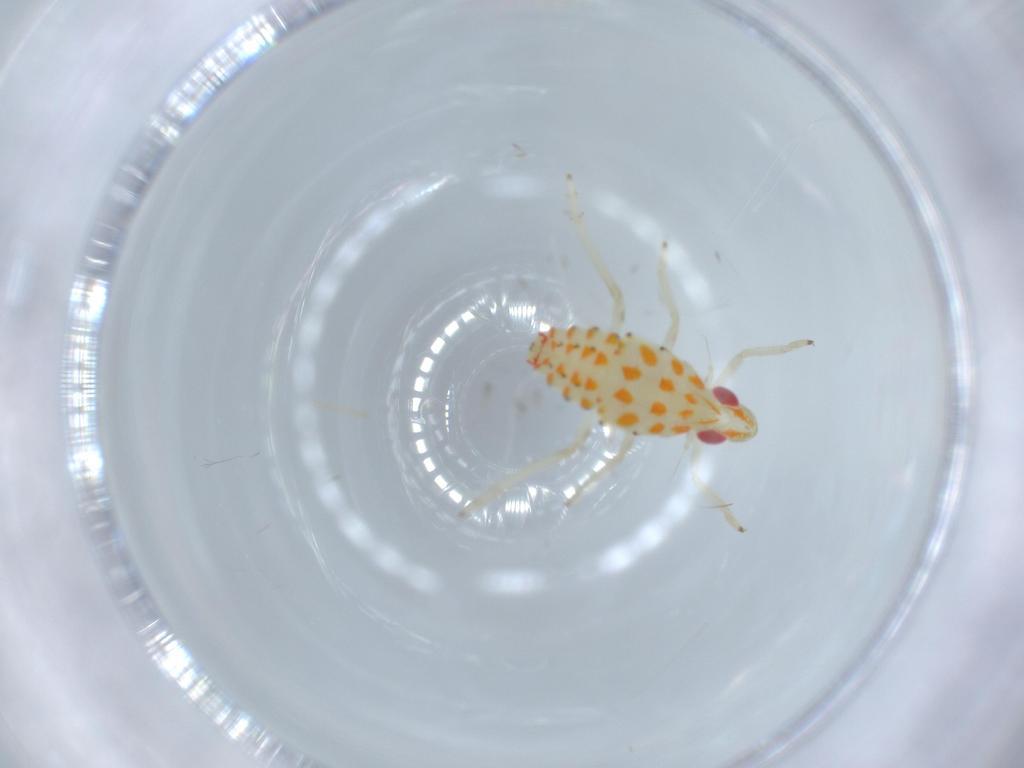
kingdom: Animalia
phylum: Arthropoda
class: Insecta
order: Hemiptera
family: Tropiduchidae
